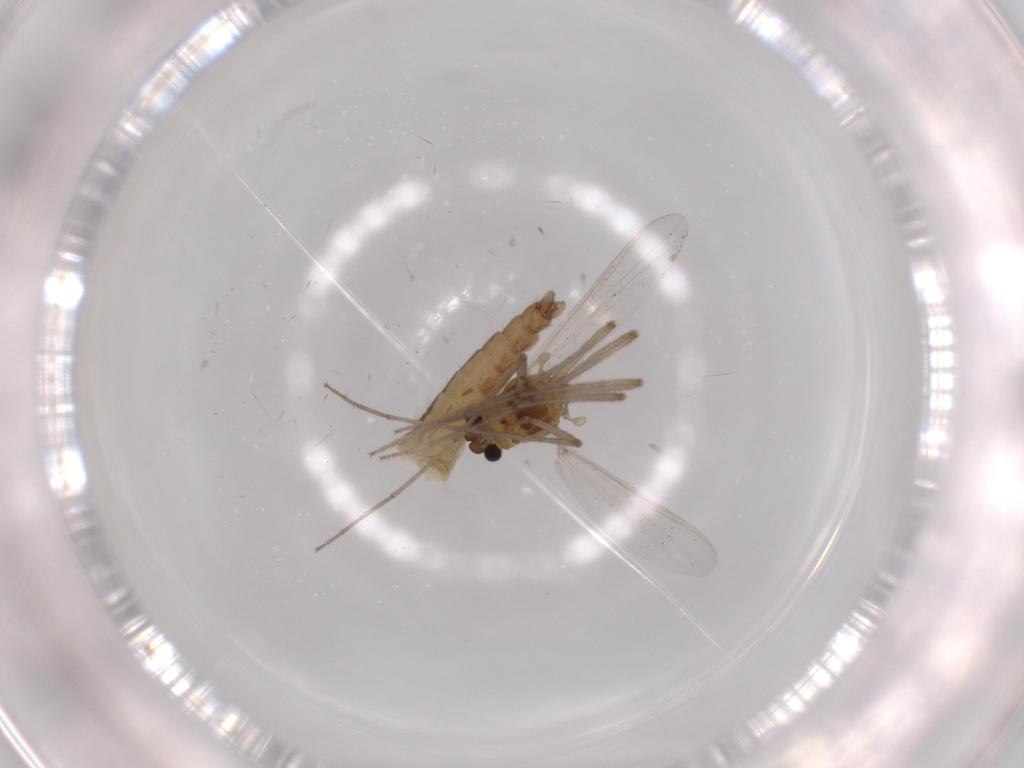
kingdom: Animalia
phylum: Arthropoda
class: Insecta
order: Diptera
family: Chironomidae
